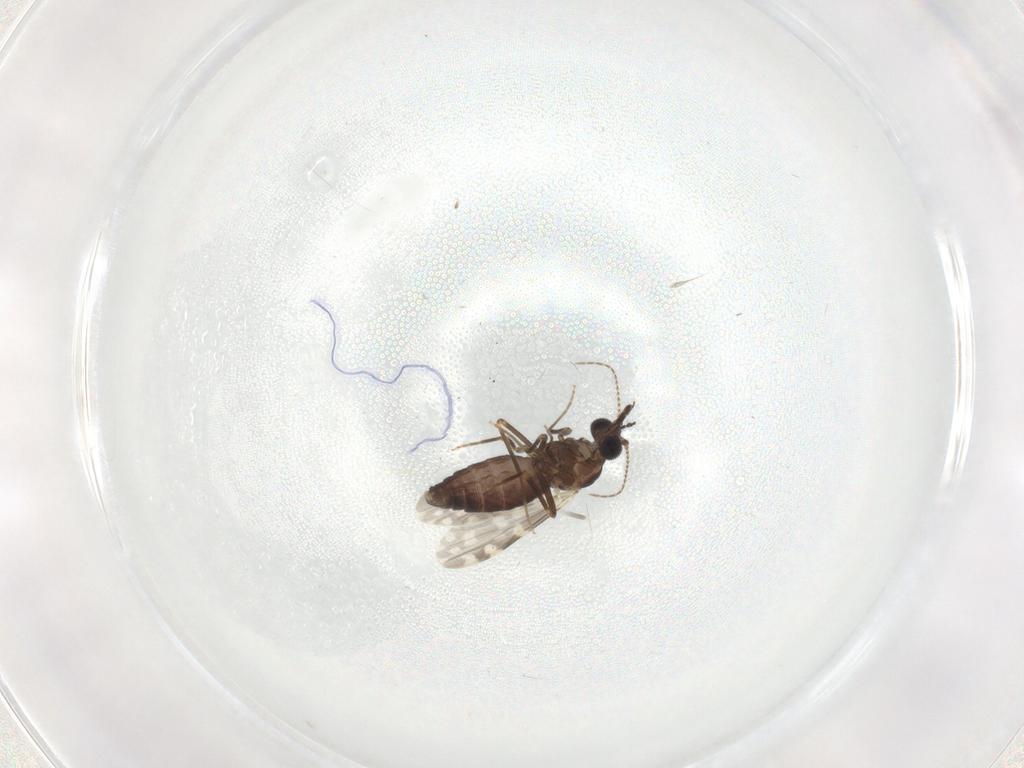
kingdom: Animalia
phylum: Arthropoda
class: Insecta
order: Diptera
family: Ceratopogonidae
